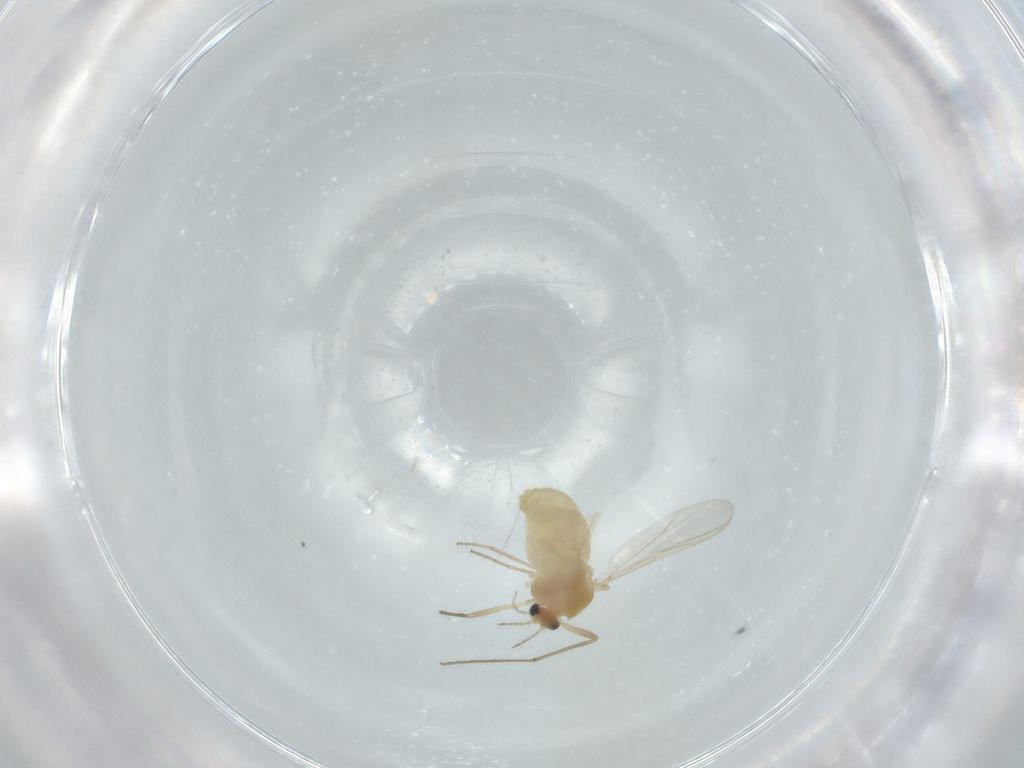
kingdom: Animalia
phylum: Arthropoda
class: Insecta
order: Diptera
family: Chironomidae
